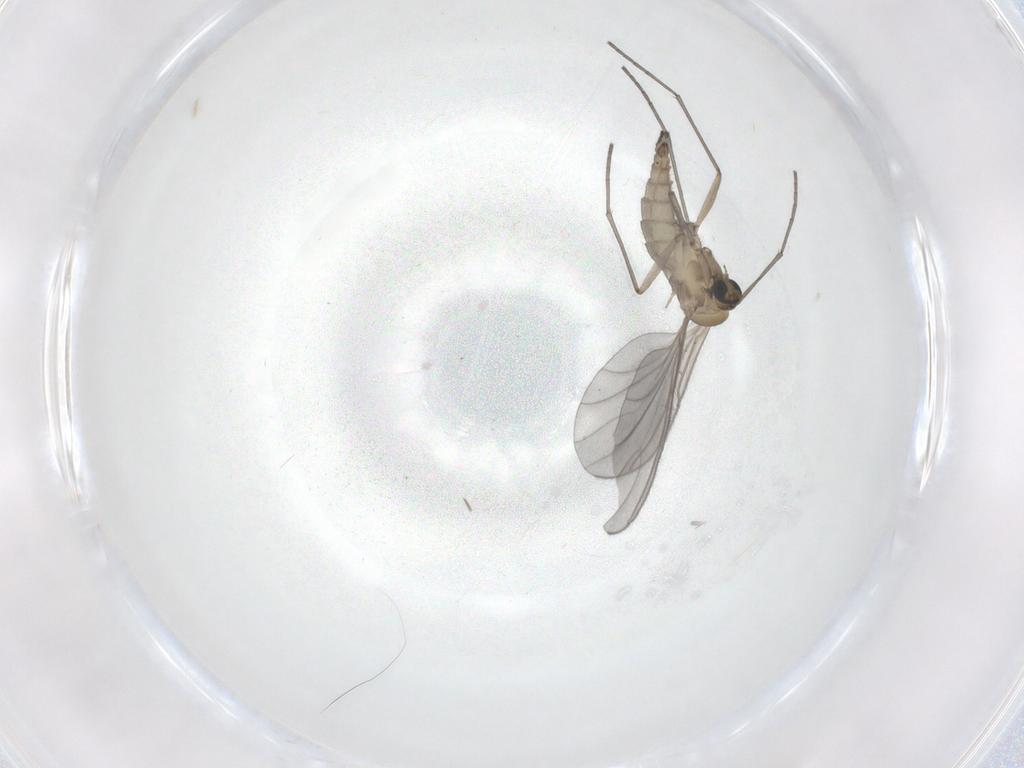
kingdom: Animalia
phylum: Arthropoda
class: Insecta
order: Diptera
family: Sciaridae
